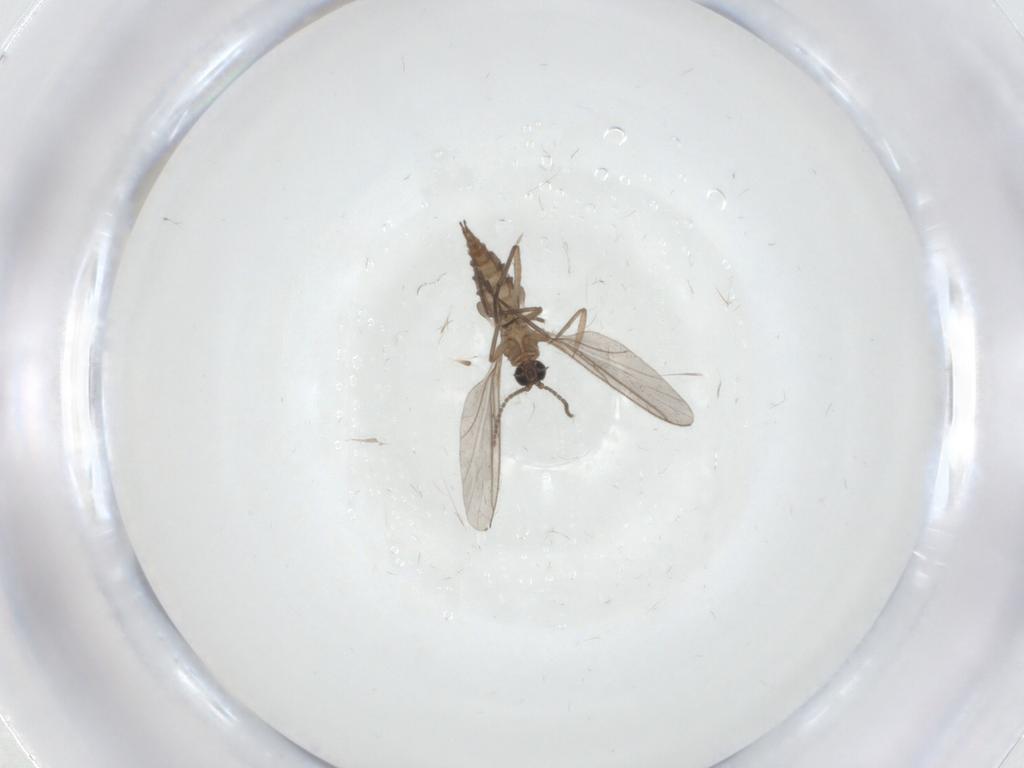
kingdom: Animalia
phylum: Arthropoda
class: Insecta
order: Diptera
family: Sciaridae
